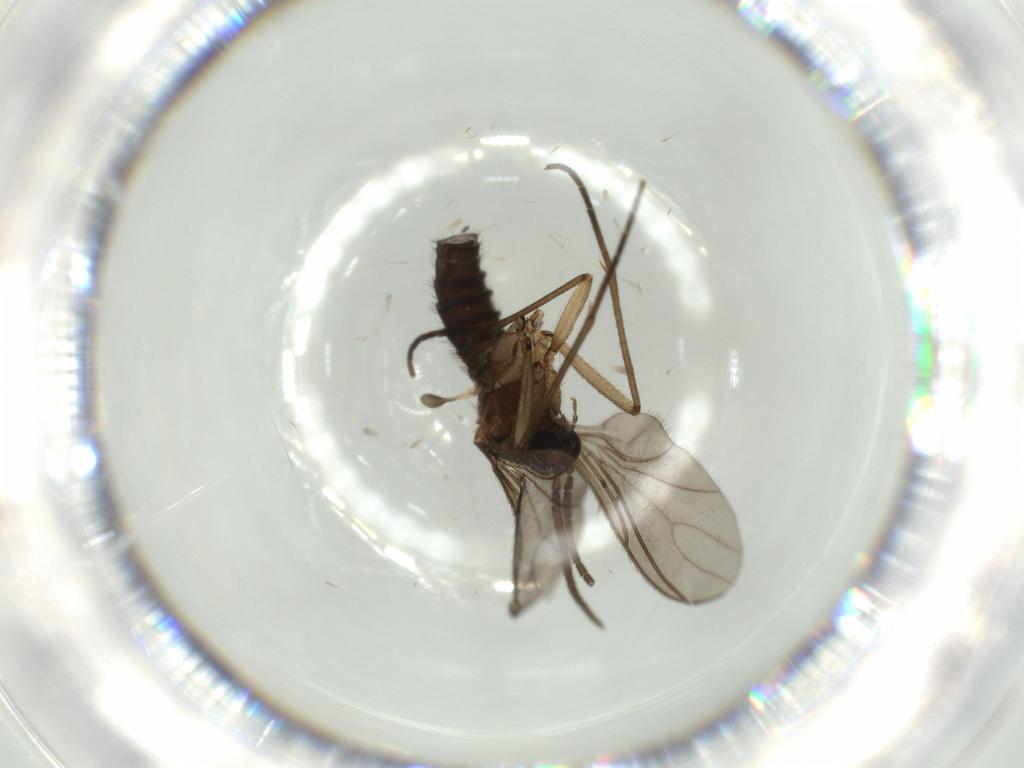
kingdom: Animalia
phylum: Arthropoda
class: Insecta
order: Diptera
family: Sciaridae
